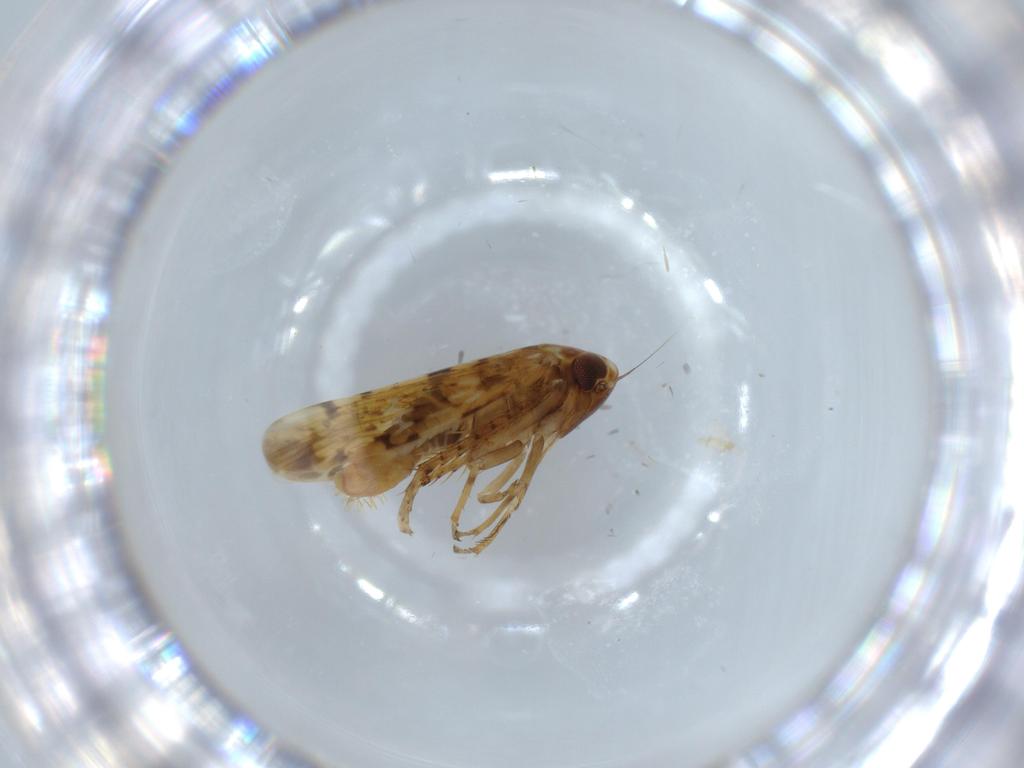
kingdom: Animalia
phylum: Arthropoda
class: Insecta
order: Hemiptera
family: Cicadellidae
